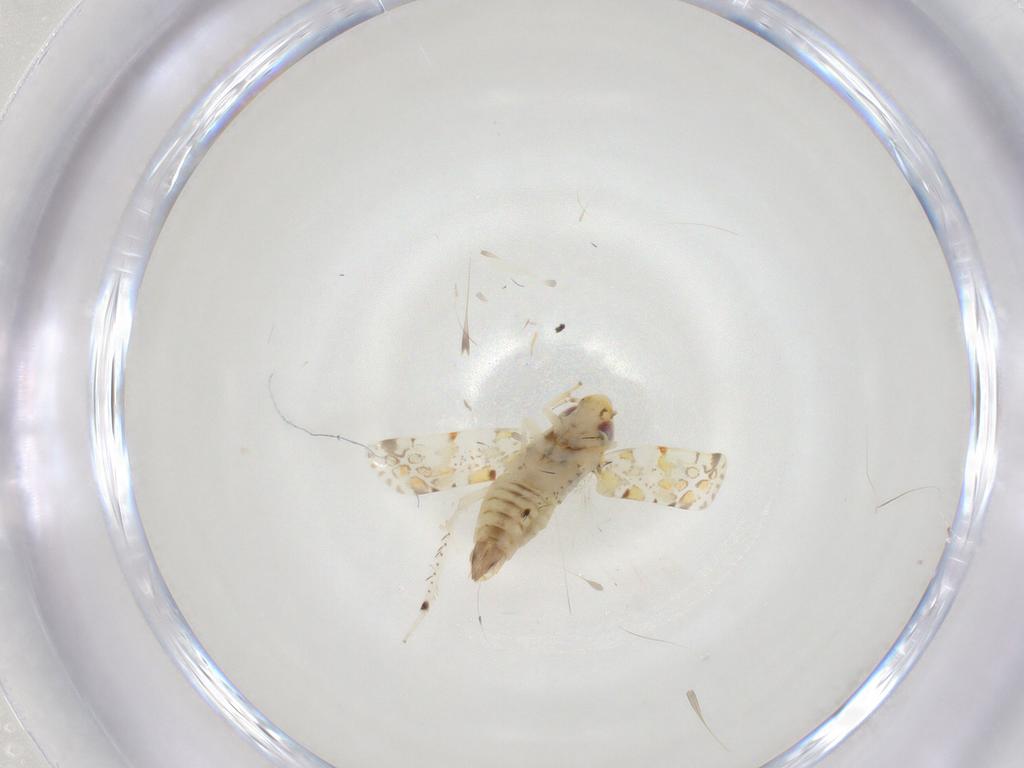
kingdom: Animalia
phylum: Arthropoda
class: Insecta
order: Hemiptera
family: Cicadellidae
